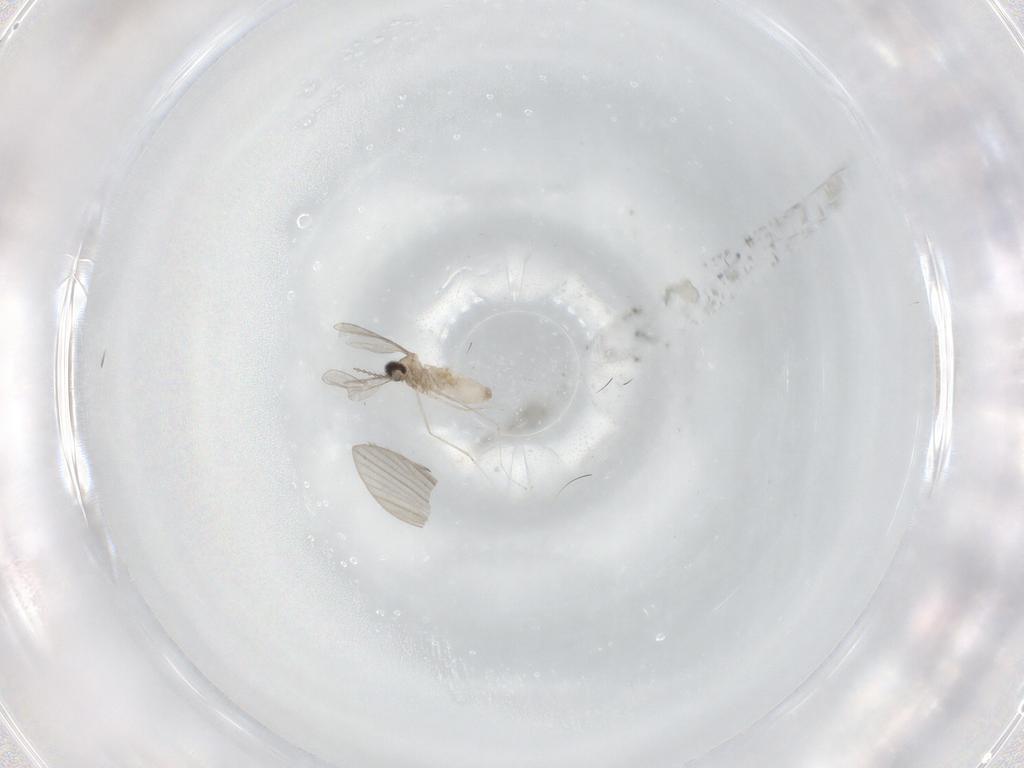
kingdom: Animalia
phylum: Arthropoda
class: Insecta
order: Diptera
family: Cecidomyiidae
